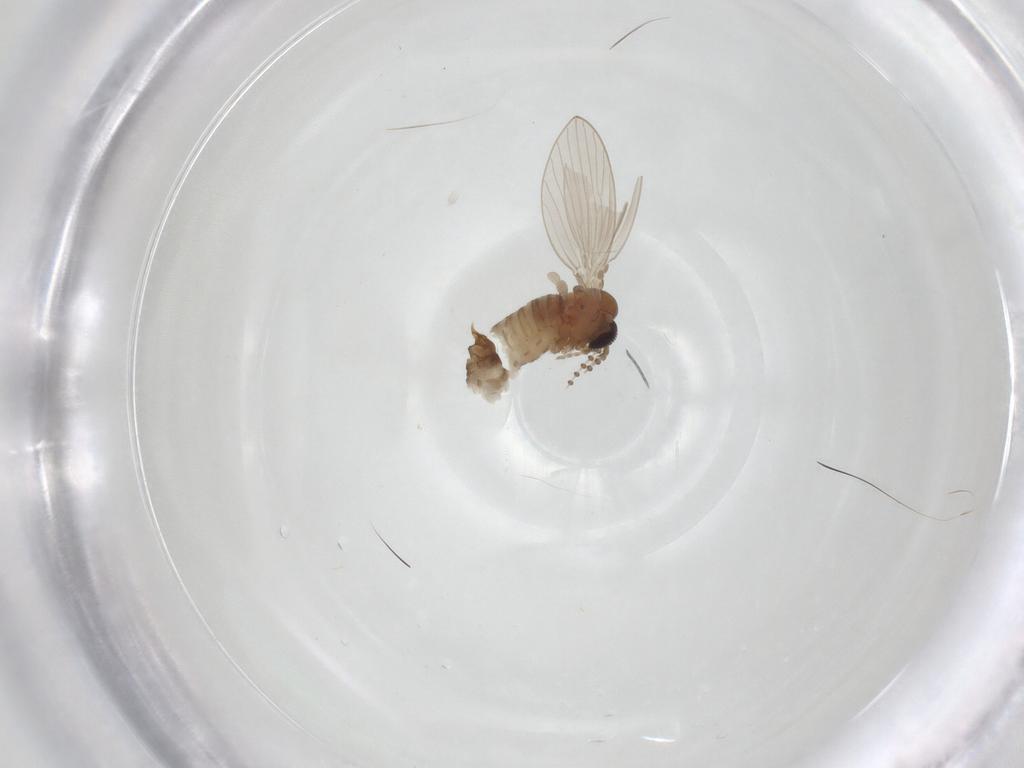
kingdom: Animalia
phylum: Arthropoda
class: Insecta
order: Diptera
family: Psychodidae
